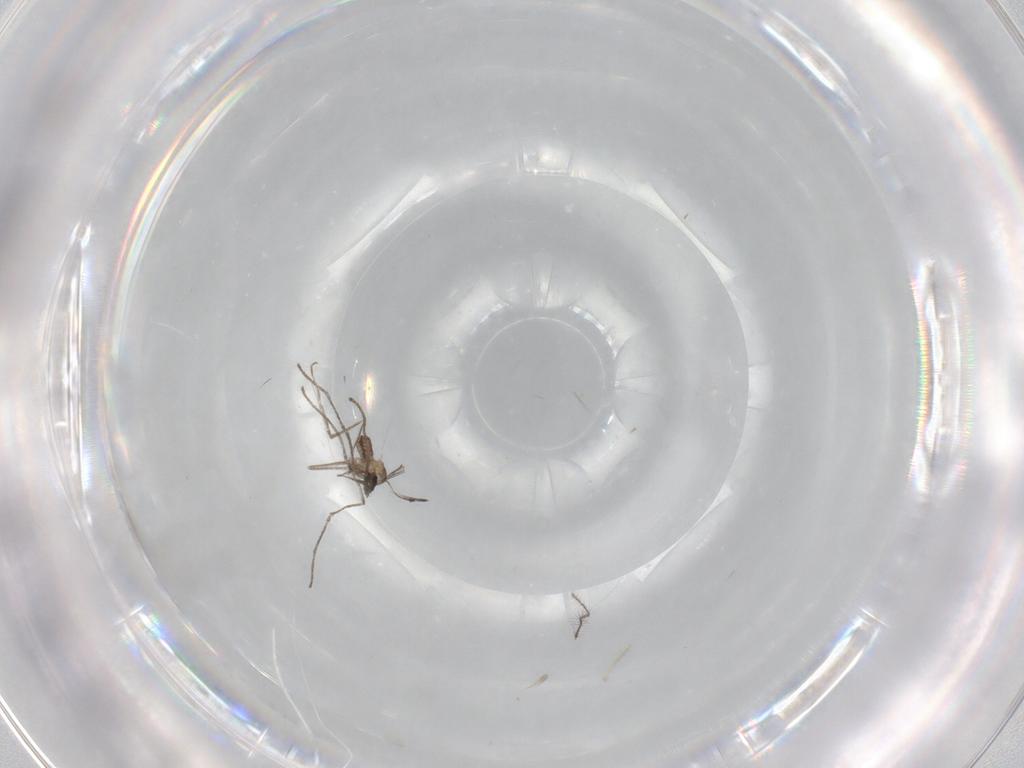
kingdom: Animalia
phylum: Arthropoda
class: Insecta
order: Diptera
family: Cecidomyiidae
